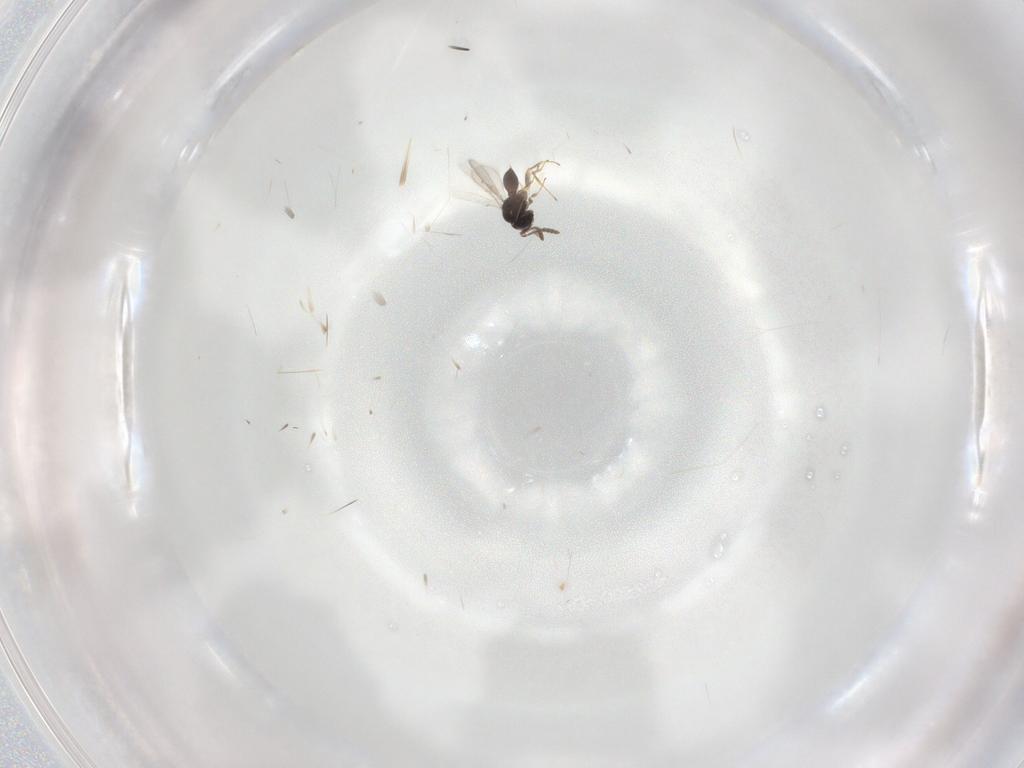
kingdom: Animalia
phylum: Arthropoda
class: Insecta
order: Hymenoptera
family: Scelionidae
